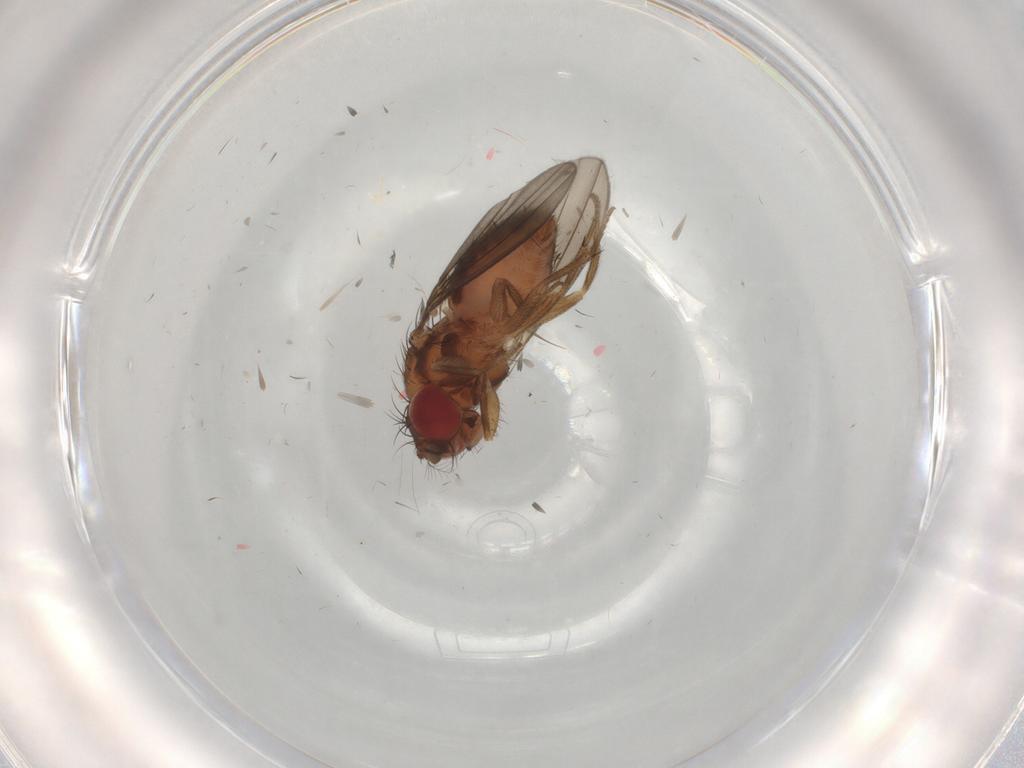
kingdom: Animalia
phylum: Arthropoda
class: Insecta
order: Diptera
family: Drosophilidae
